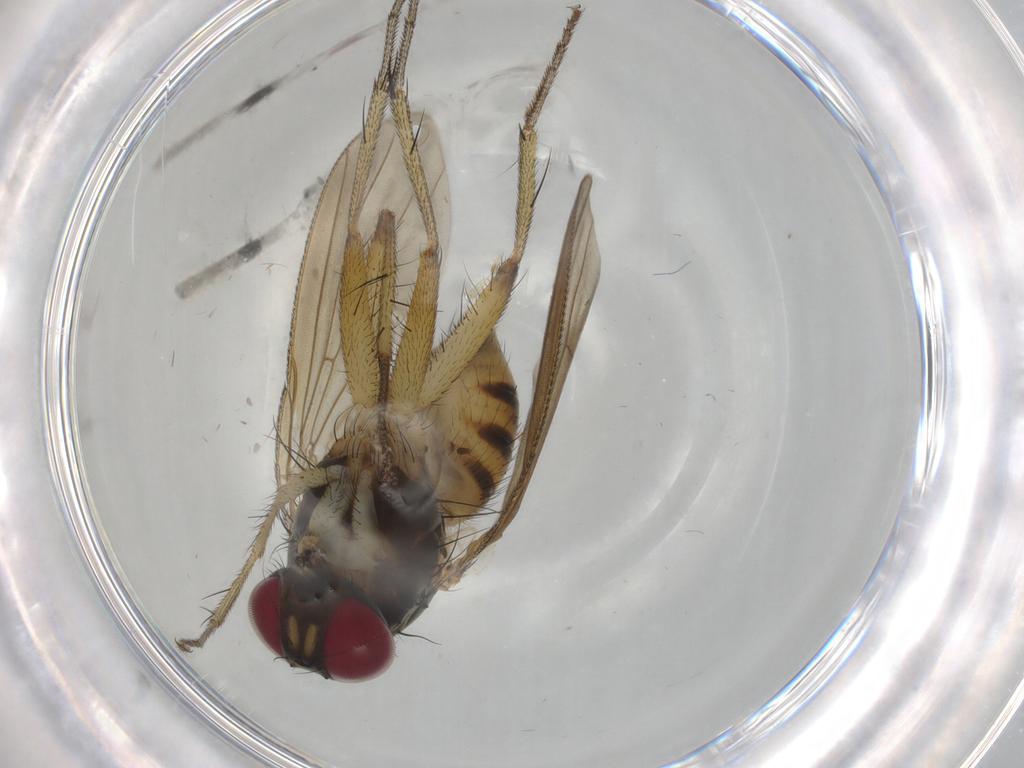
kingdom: Animalia
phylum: Arthropoda
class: Insecta
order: Diptera
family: Muscidae
